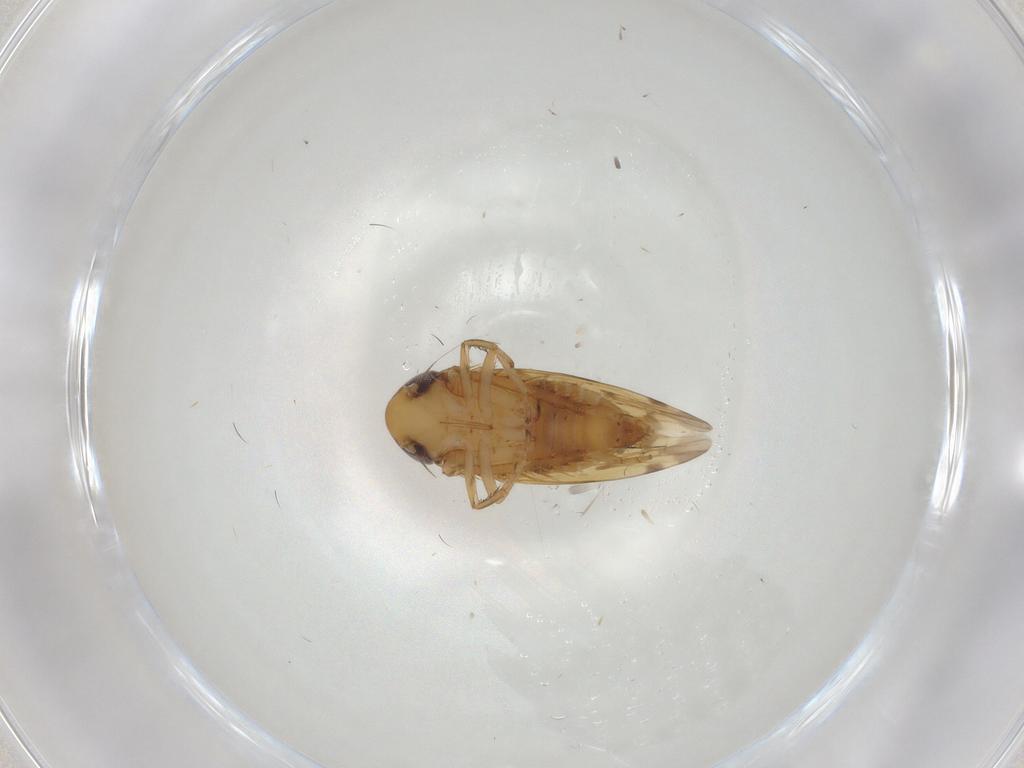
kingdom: Animalia
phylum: Arthropoda
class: Insecta
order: Hemiptera
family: Cicadellidae
